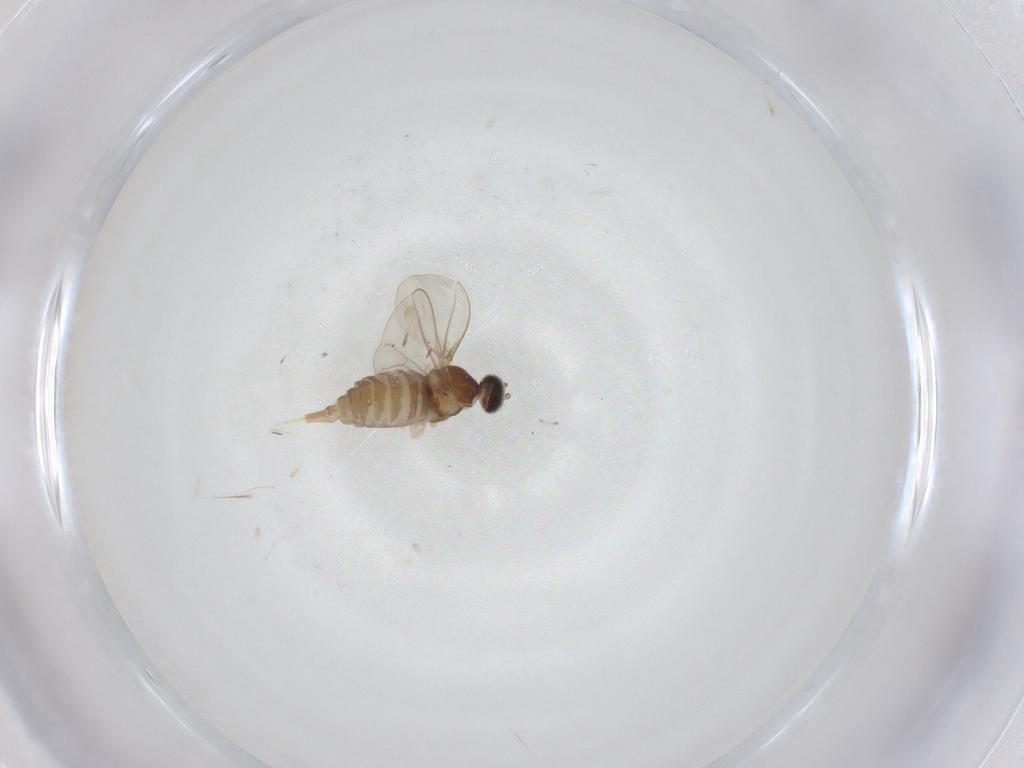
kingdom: Animalia
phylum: Arthropoda
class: Insecta
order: Diptera
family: Cecidomyiidae
